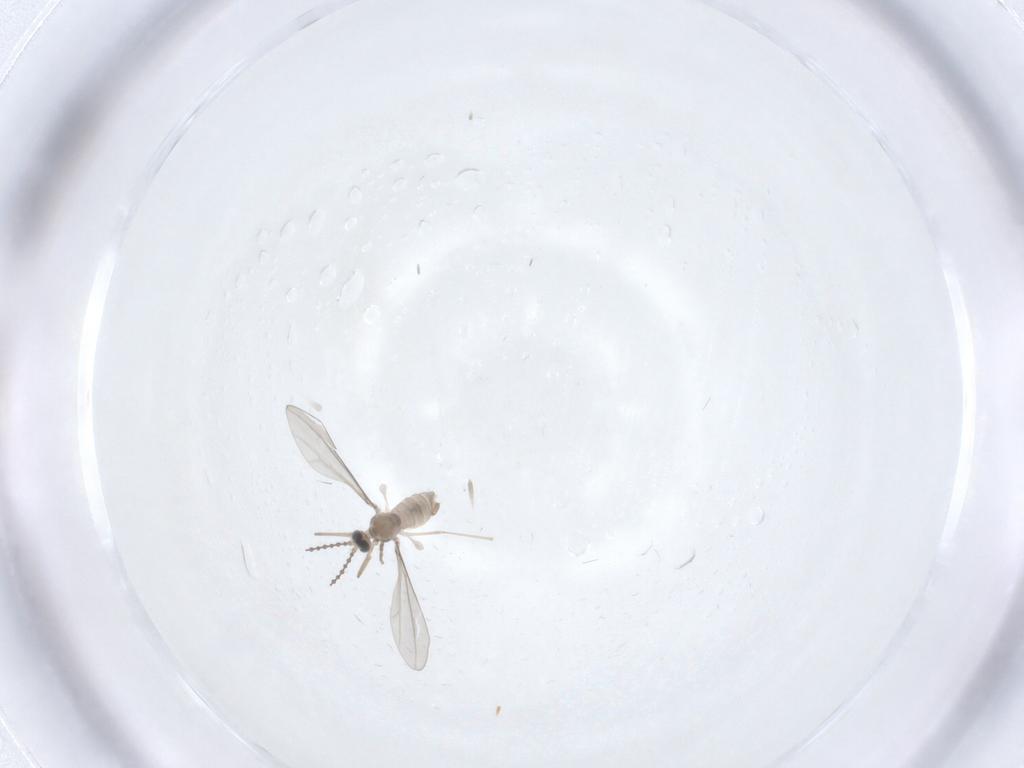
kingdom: Animalia
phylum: Arthropoda
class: Insecta
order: Diptera
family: Cecidomyiidae
